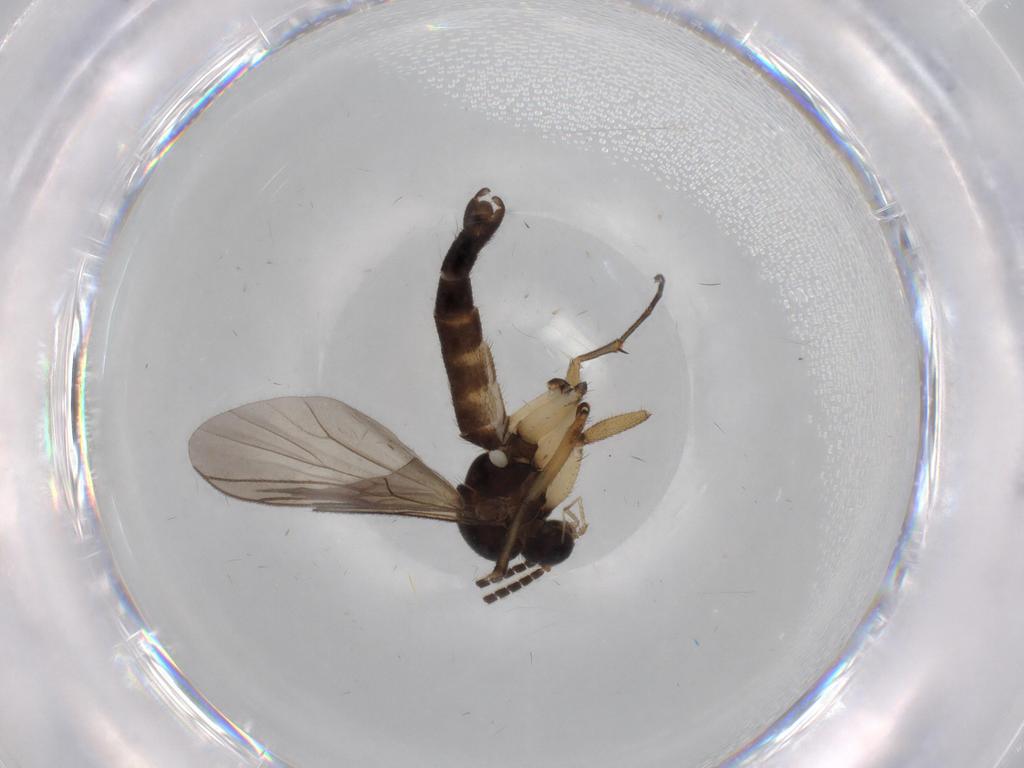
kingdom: Animalia
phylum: Arthropoda
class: Insecta
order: Diptera
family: Mycetophilidae
